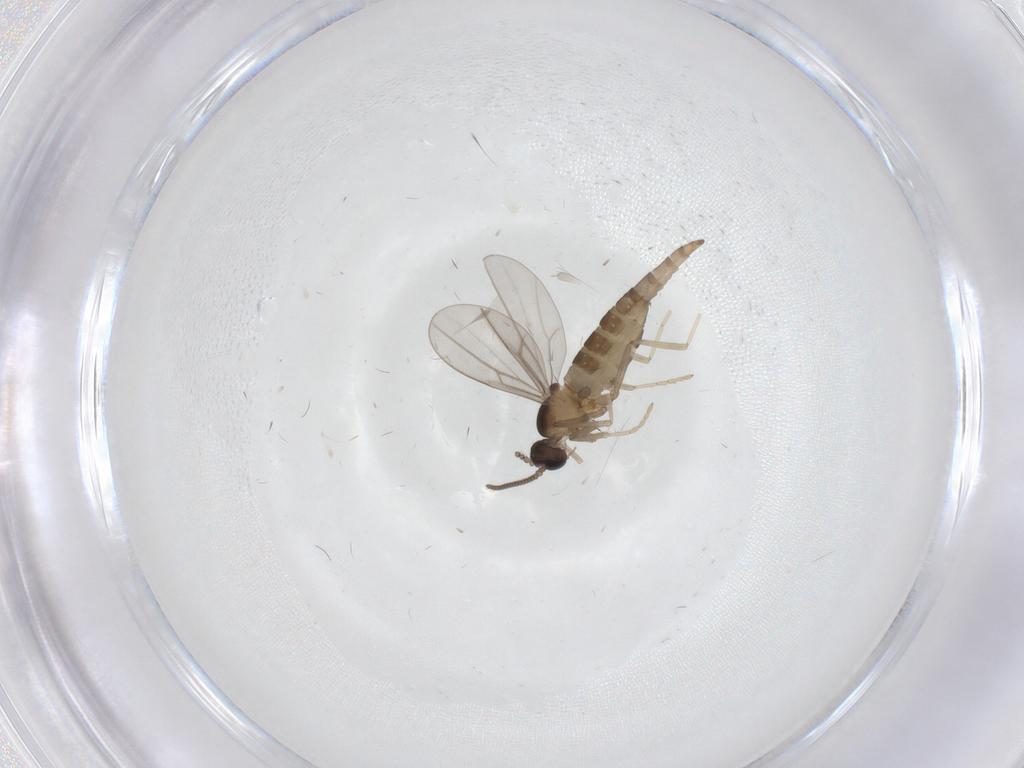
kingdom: Animalia
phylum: Arthropoda
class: Insecta
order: Diptera
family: Cecidomyiidae
